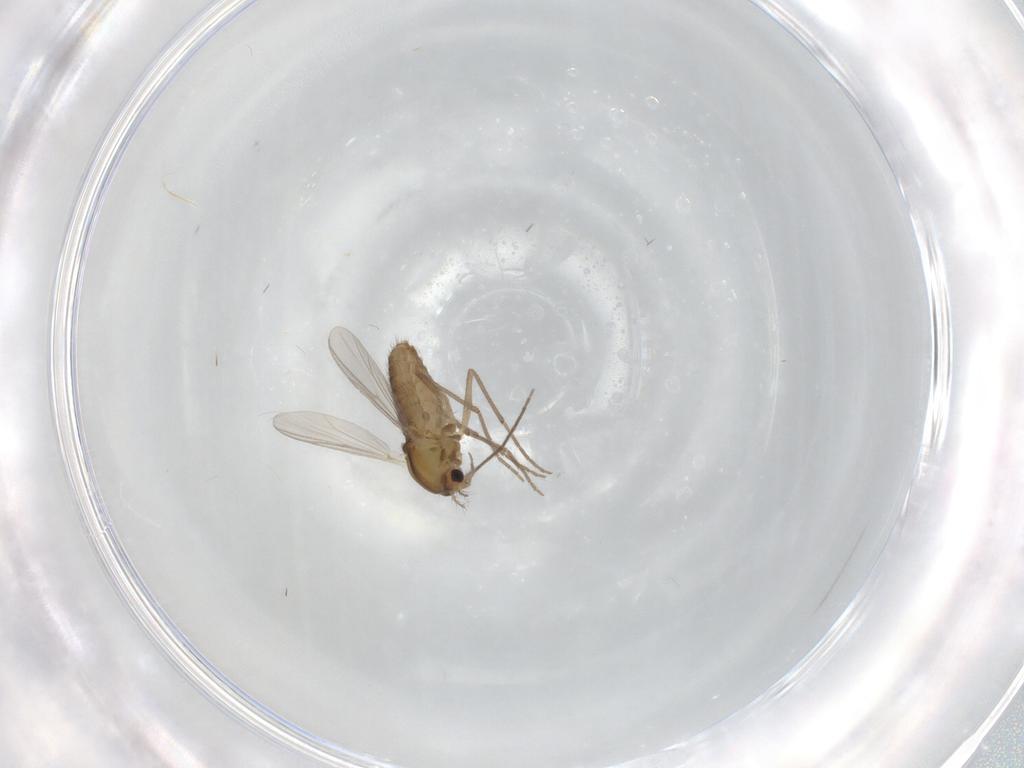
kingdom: Animalia
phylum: Arthropoda
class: Insecta
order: Diptera
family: Chironomidae
